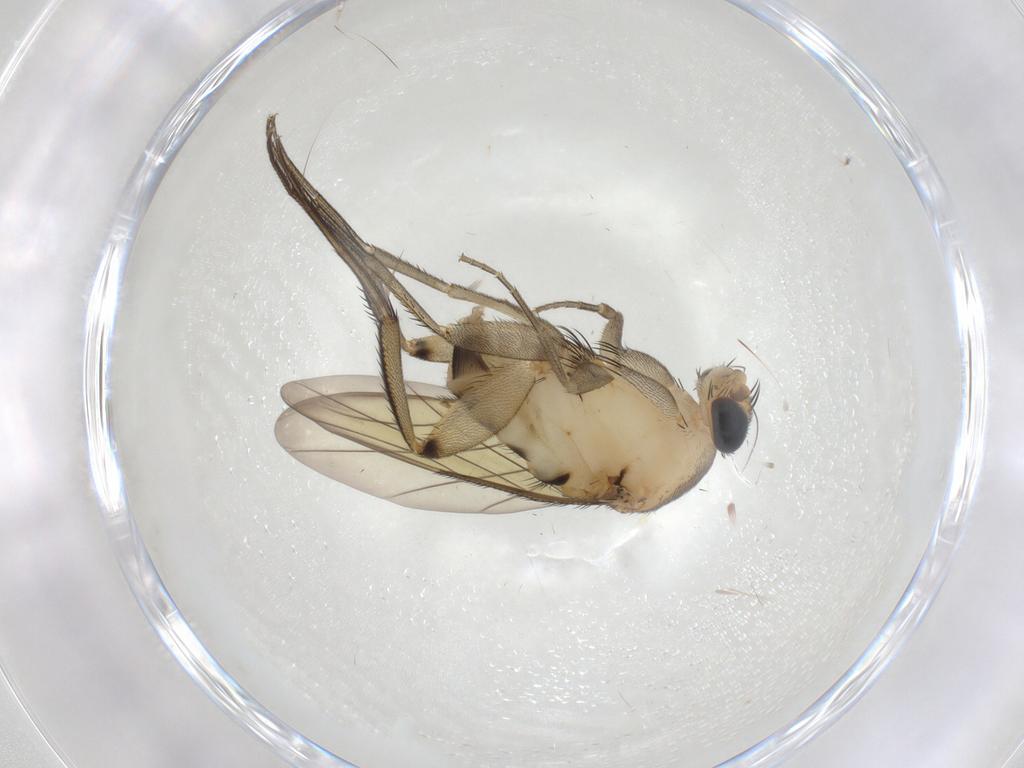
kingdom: Animalia
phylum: Arthropoda
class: Insecta
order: Diptera
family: Phoridae
